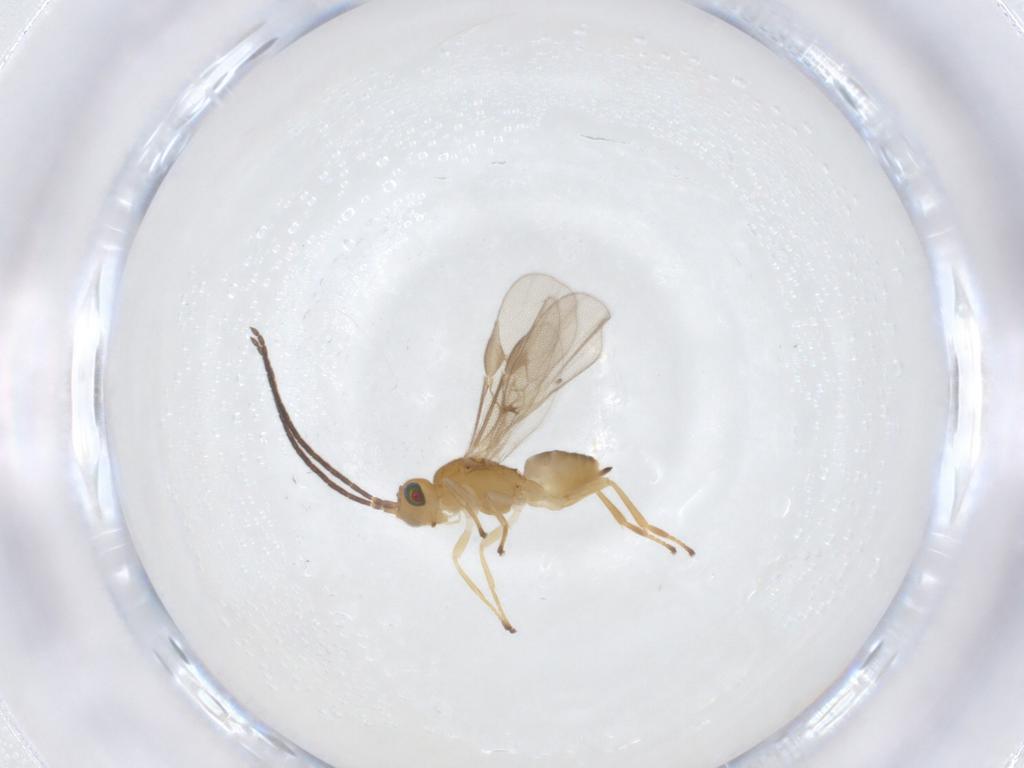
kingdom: Animalia
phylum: Arthropoda
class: Insecta
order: Hymenoptera
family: Braconidae
